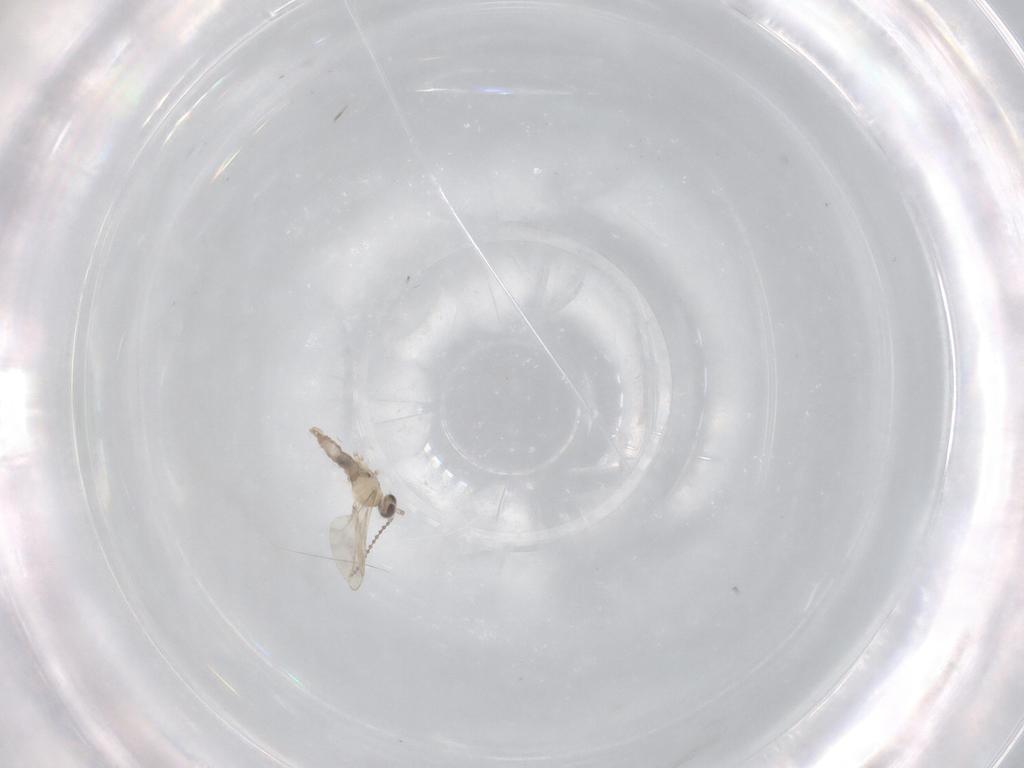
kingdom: Animalia
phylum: Arthropoda
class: Insecta
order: Diptera
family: Cecidomyiidae
